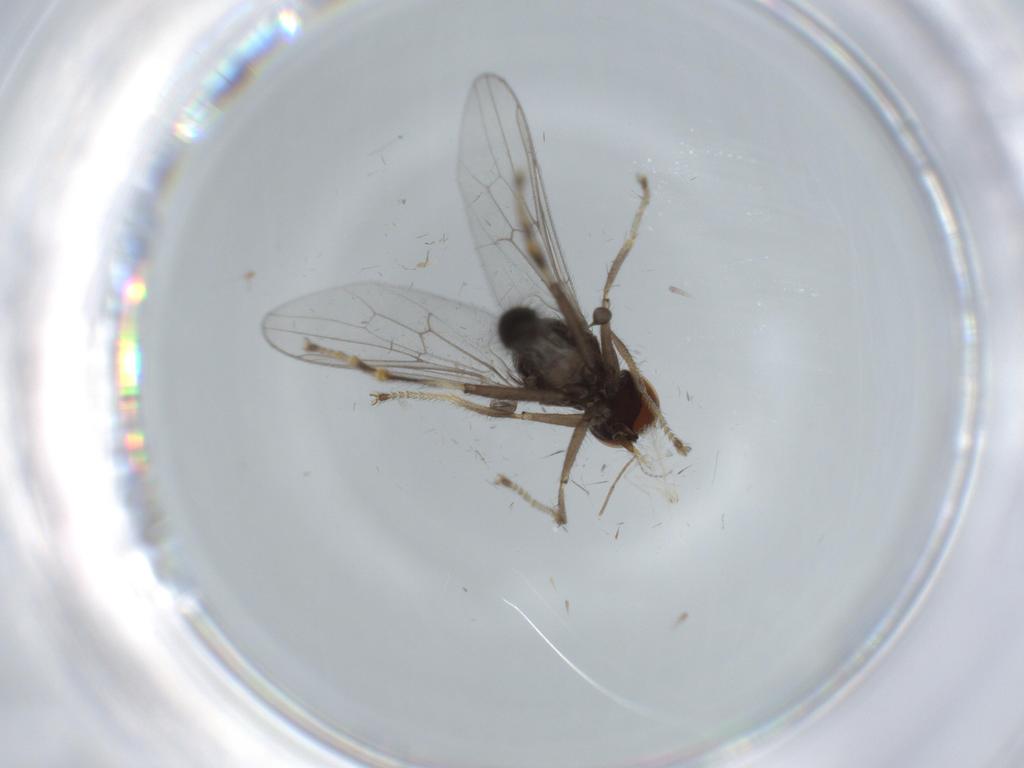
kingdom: Animalia
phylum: Arthropoda
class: Insecta
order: Diptera
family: Hybotidae
